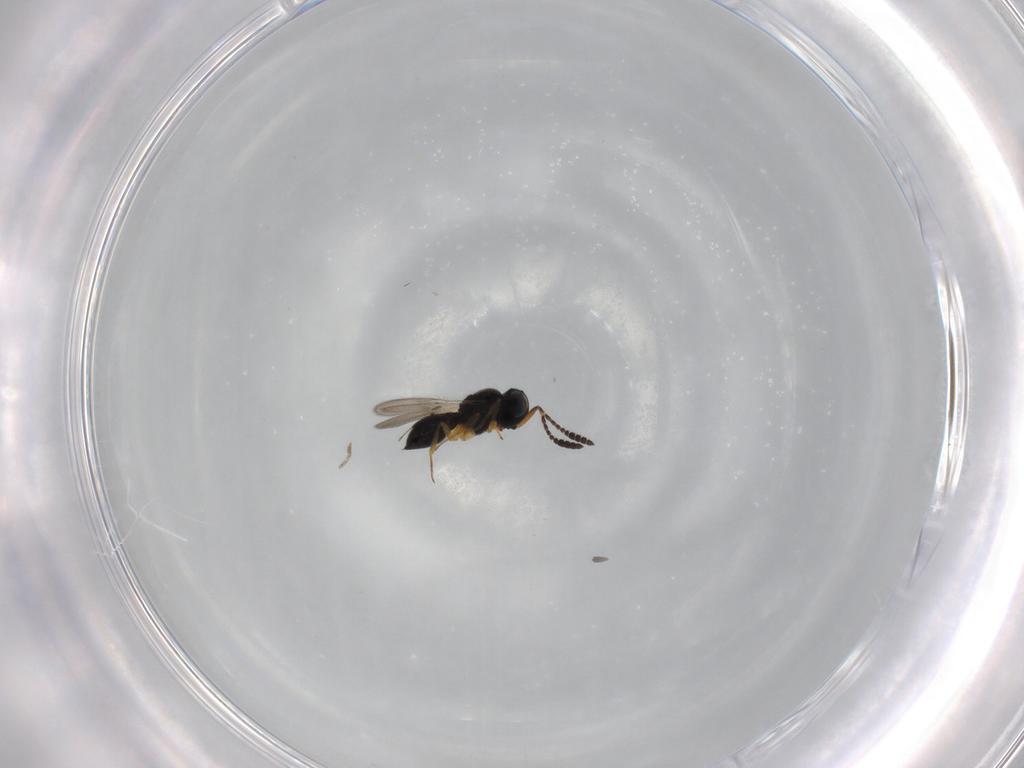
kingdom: Animalia
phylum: Arthropoda
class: Insecta
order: Hymenoptera
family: Scelionidae
